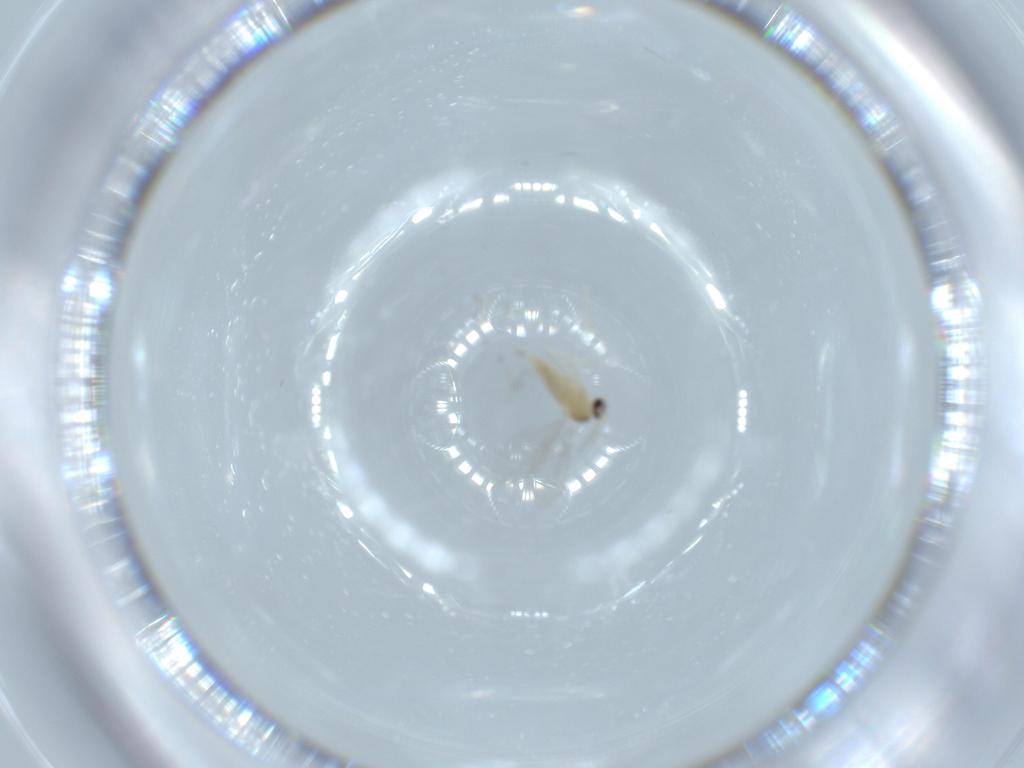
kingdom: Animalia
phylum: Arthropoda
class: Insecta
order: Diptera
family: Cecidomyiidae
